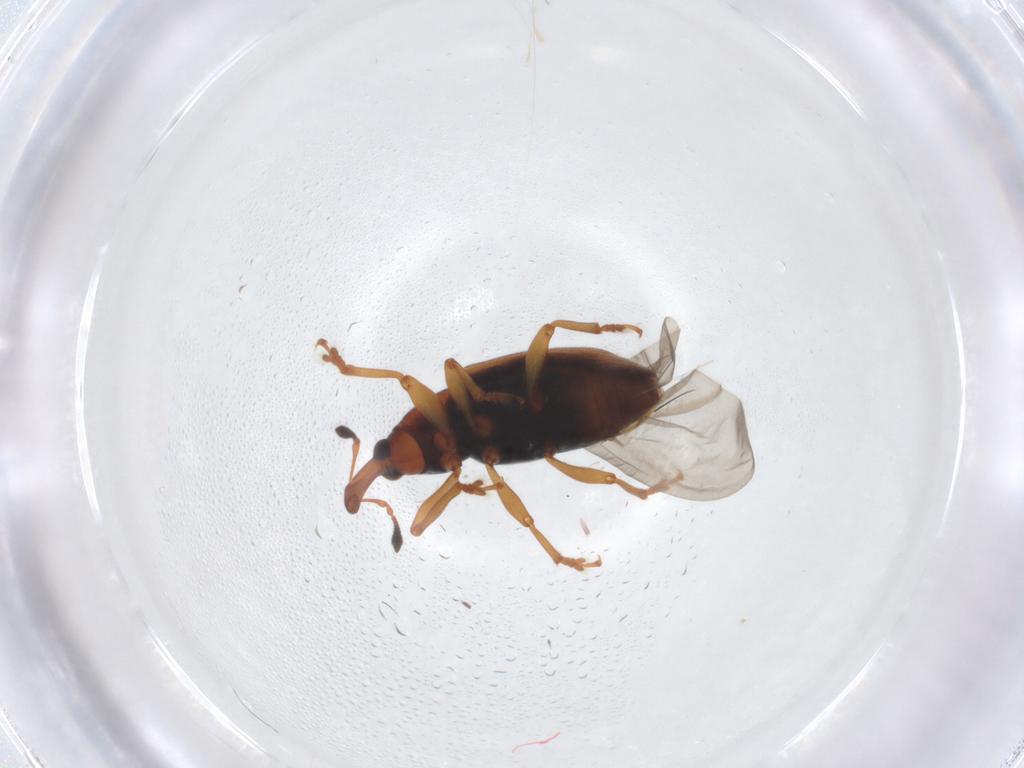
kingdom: Animalia
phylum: Arthropoda
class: Insecta
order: Coleoptera
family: Curculionidae
